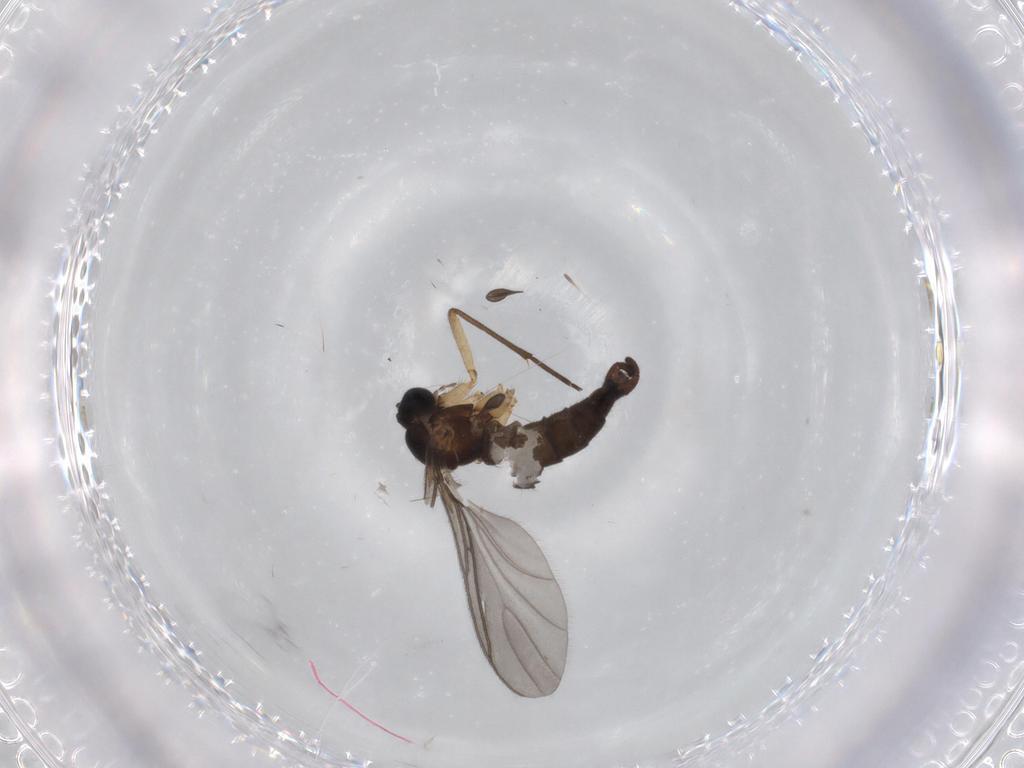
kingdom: Animalia
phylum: Arthropoda
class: Insecta
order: Diptera
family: Sciaridae
